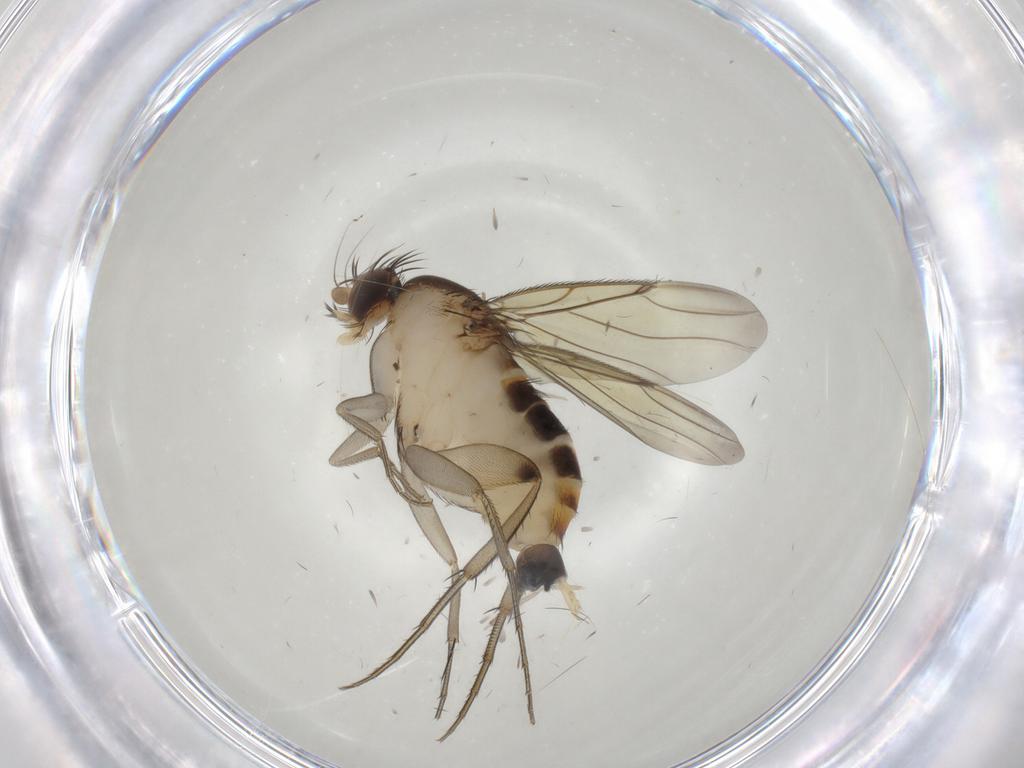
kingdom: Animalia
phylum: Arthropoda
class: Insecta
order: Diptera
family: Phoridae
